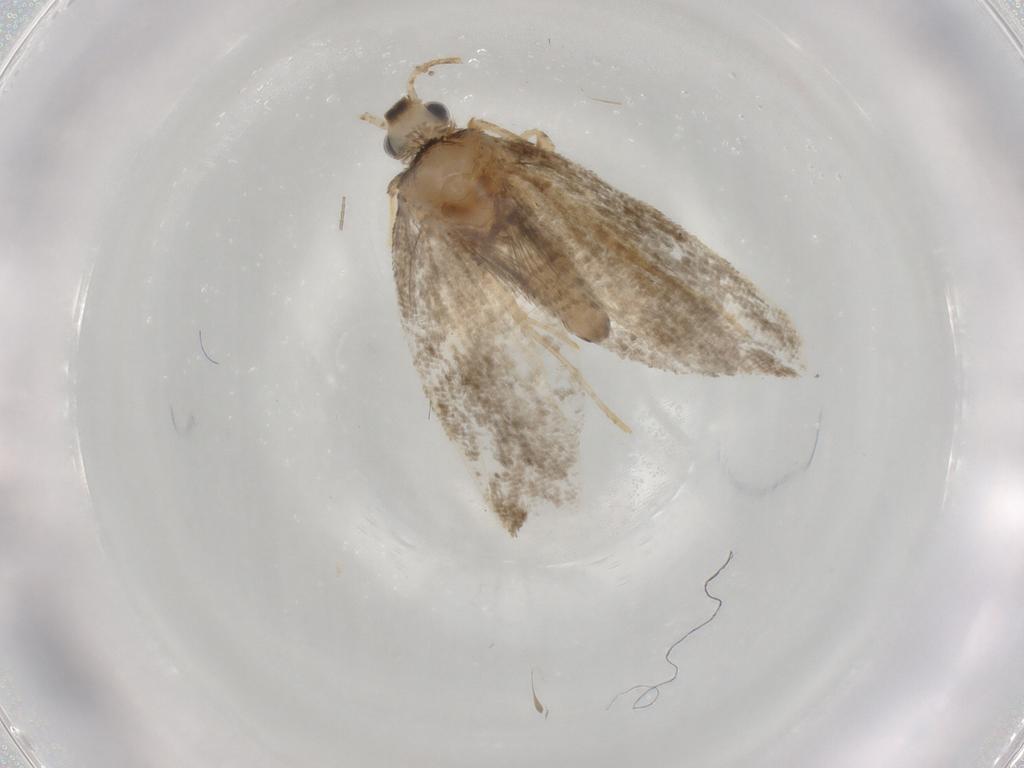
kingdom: Animalia
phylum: Arthropoda
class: Insecta
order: Lepidoptera
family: Psychidae
